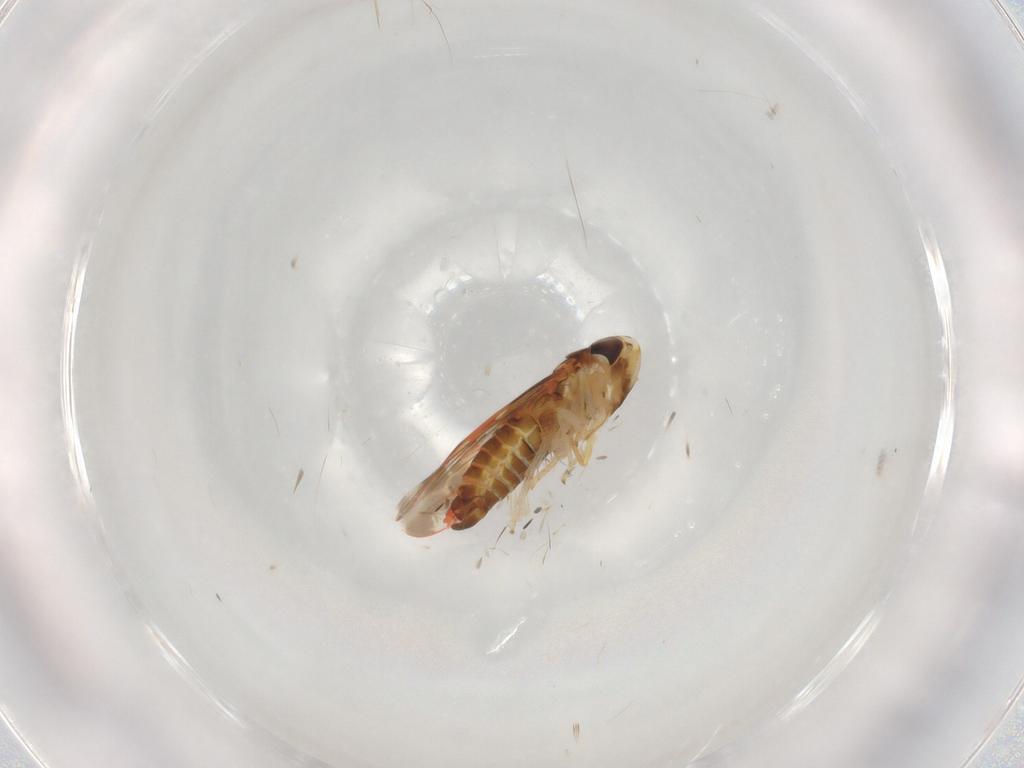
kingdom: Animalia
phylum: Arthropoda
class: Insecta
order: Hemiptera
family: Cicadellidae
